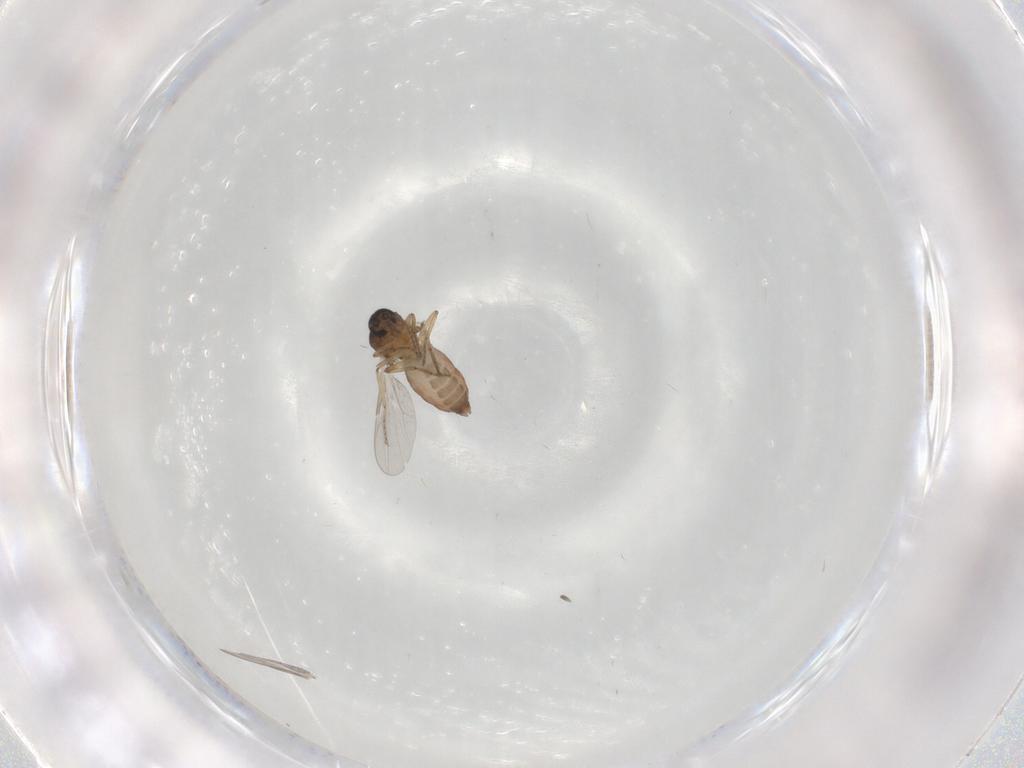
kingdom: Animalia
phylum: Arthropoda
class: Insecta
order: Diptera
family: Ceratopogonidae
